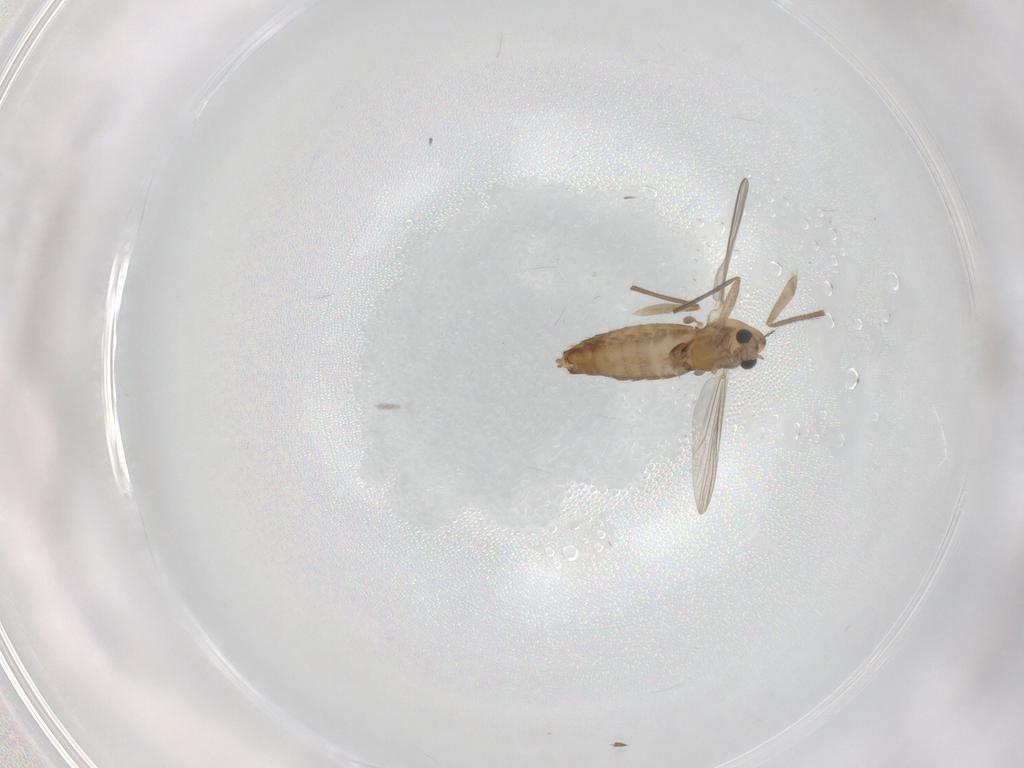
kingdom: Animalia
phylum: Arthropoda
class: Insecta
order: Diptera
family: Chironomidae
